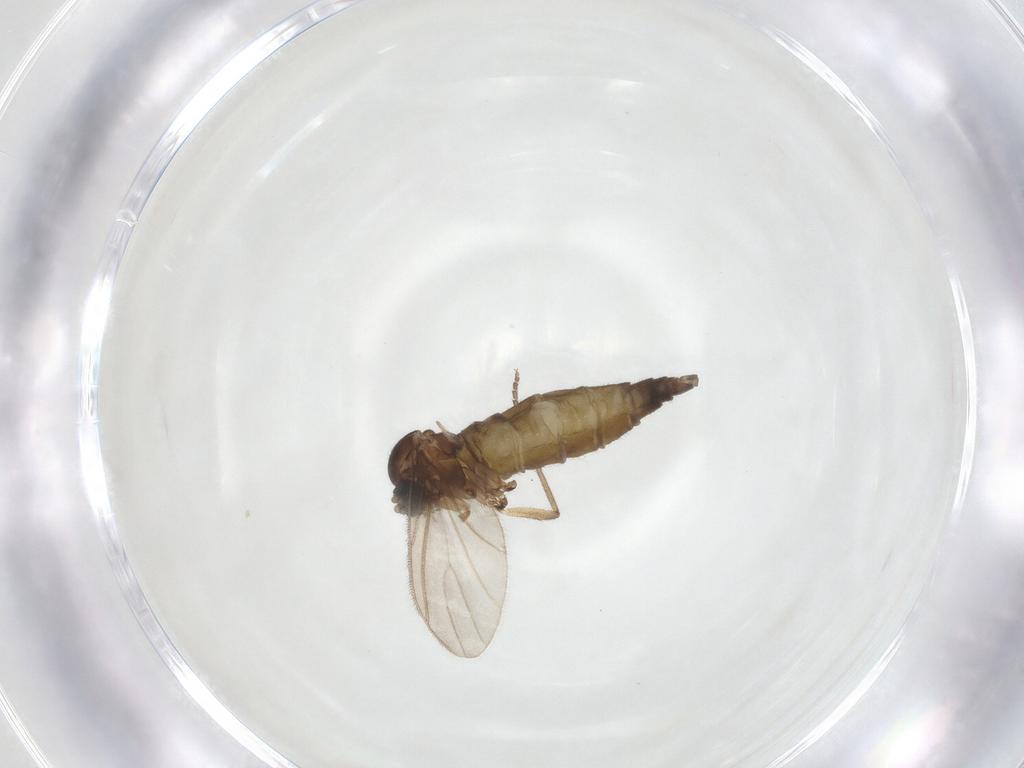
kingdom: Animalia
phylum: Arthropoda
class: Insecta
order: Diptera
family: Sciaridae
